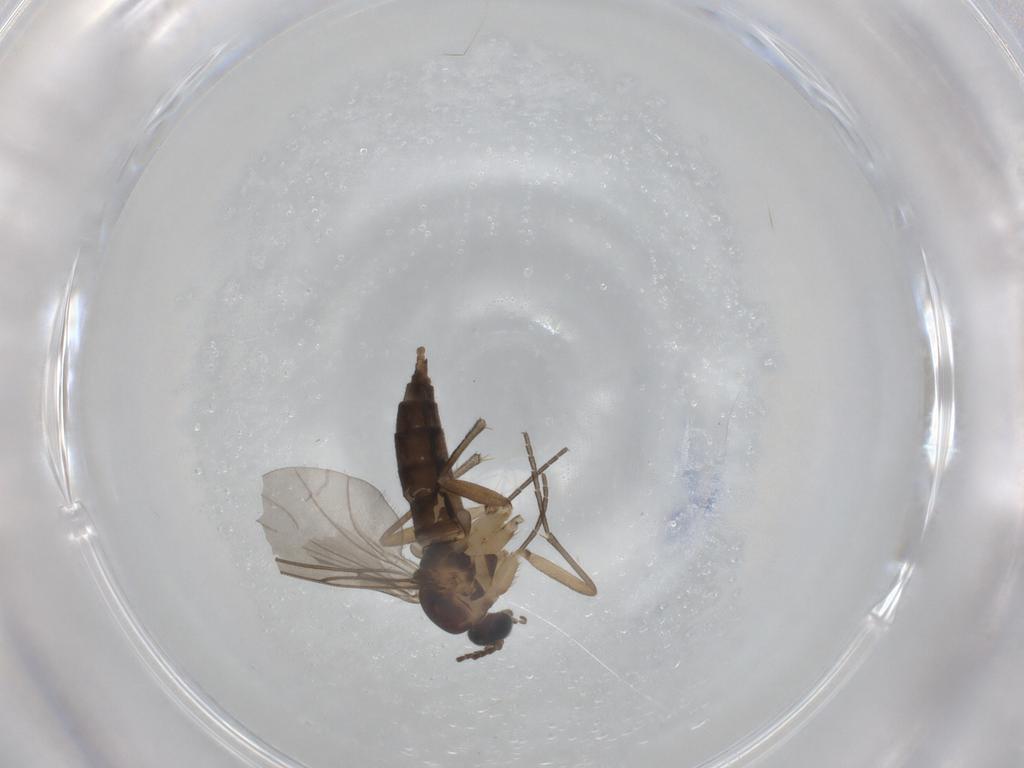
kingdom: Animalia
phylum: Arthropoda
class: Insecta
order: Diptera
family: Sciaridae
